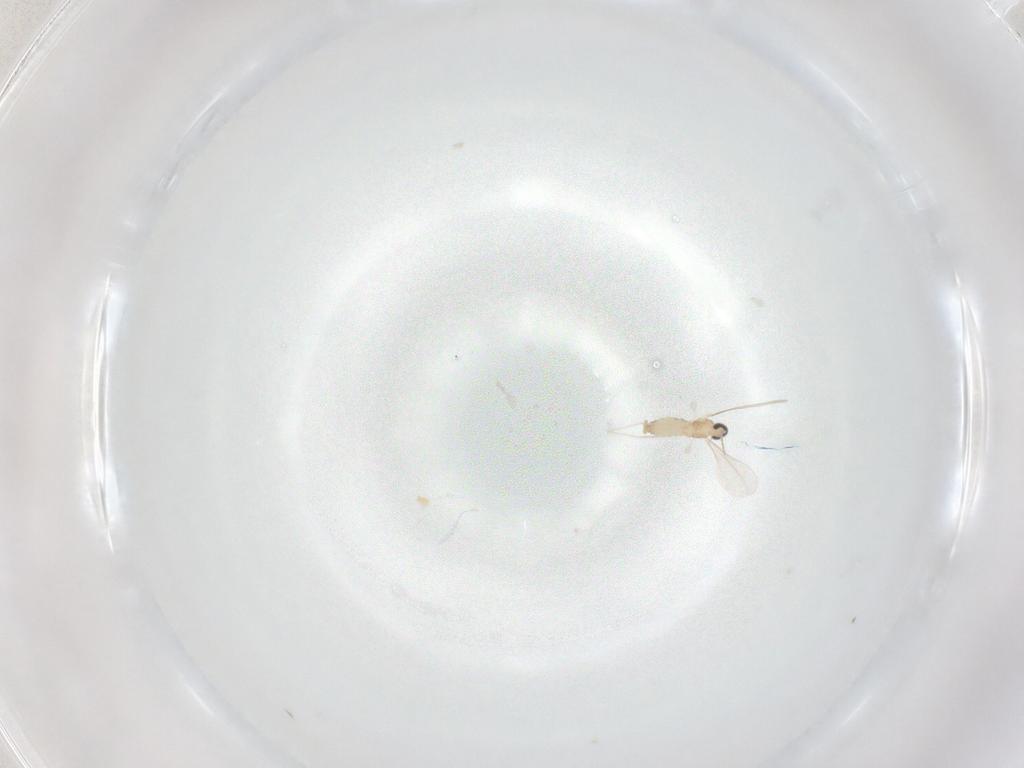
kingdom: Animalia
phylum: Arthropoda
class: Insecta
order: Diptera
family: Cecidomyiidae
